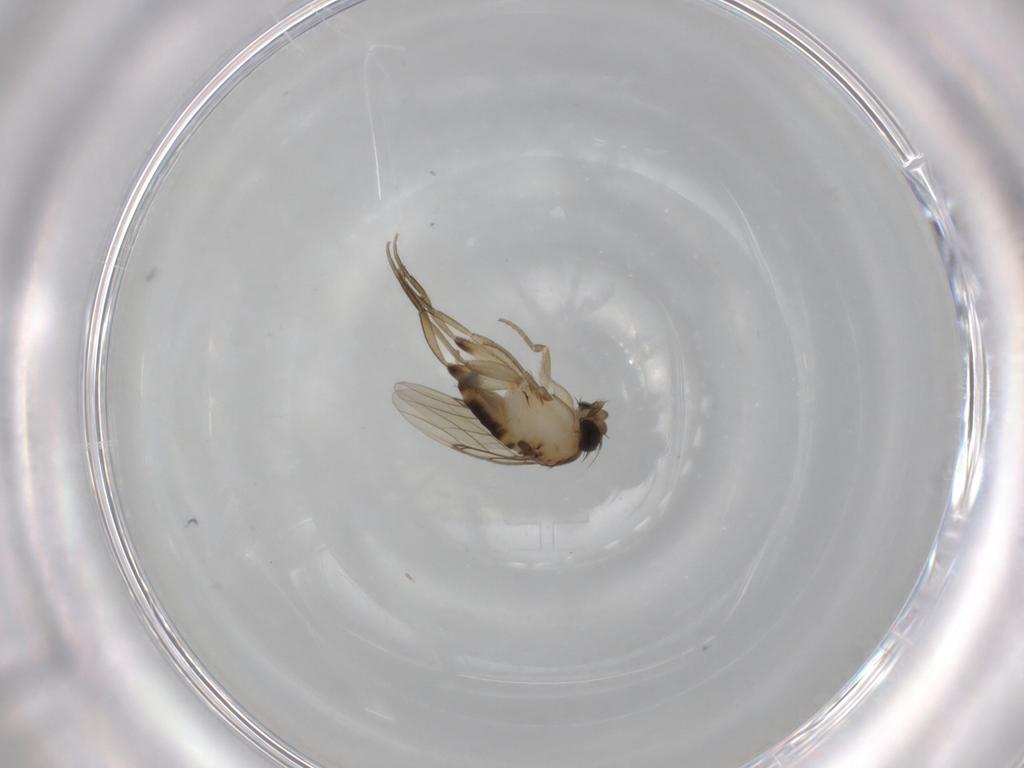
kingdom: Animalia
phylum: Arthropoda
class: Insecta
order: Diptera
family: Phoridae
